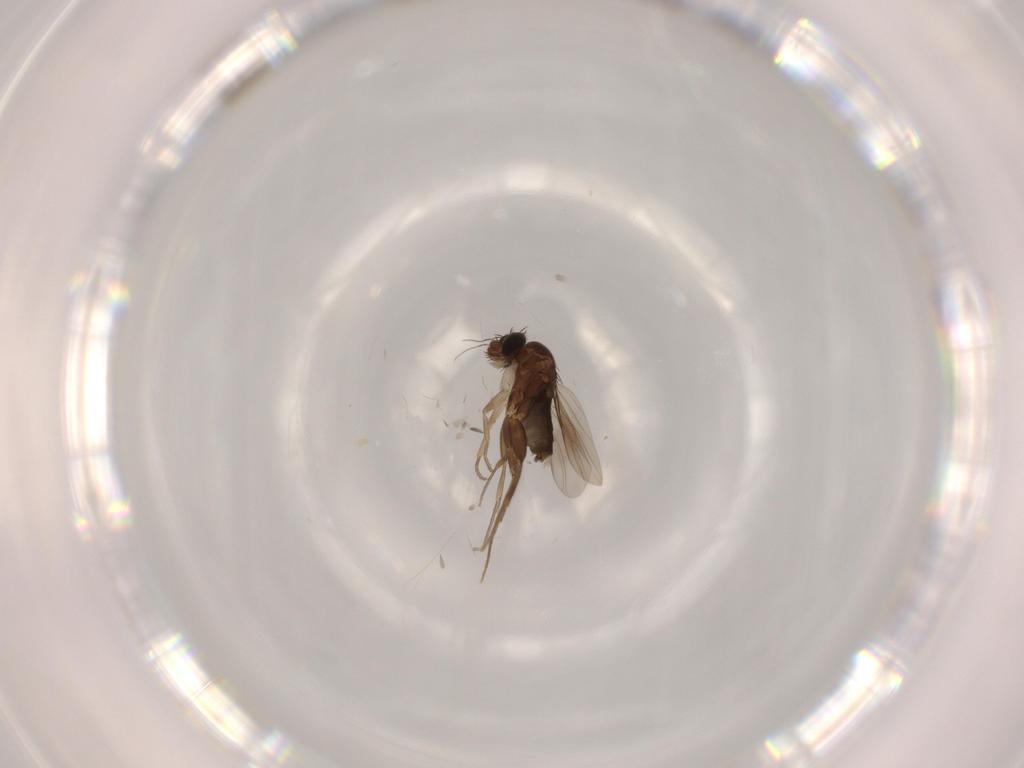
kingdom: Animalia
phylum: Arthropoda
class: Insecta
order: Diptera
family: Phoridae
